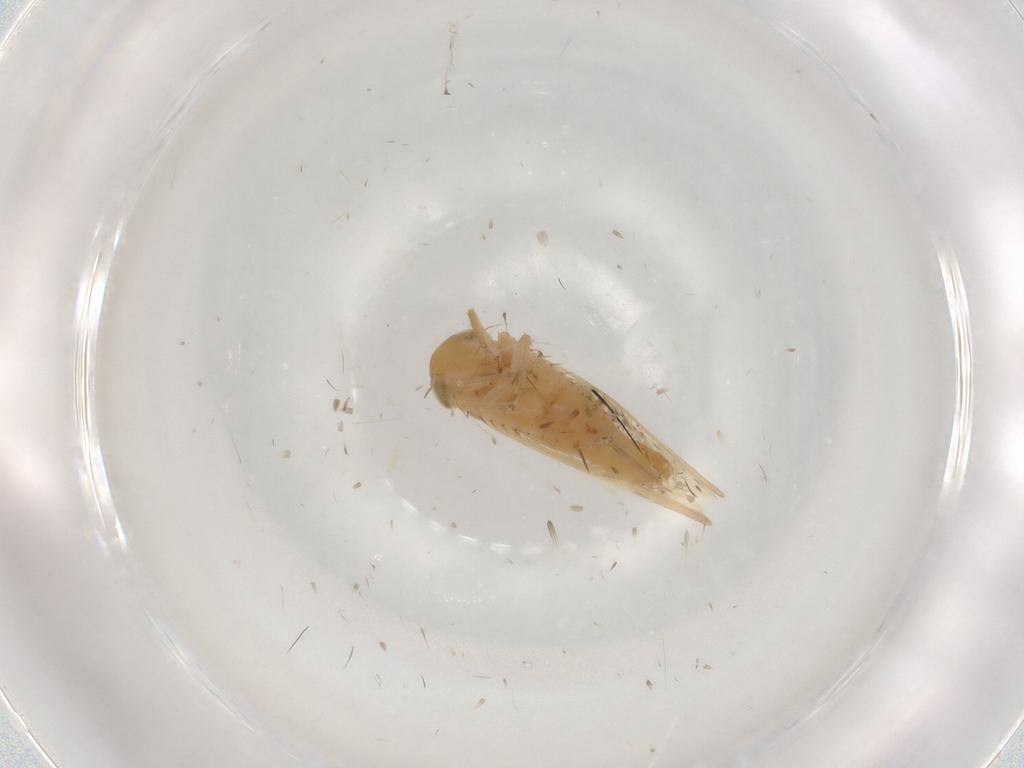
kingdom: Animalia
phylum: Arthropoda
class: Insecta
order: Hemiptera
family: Cicadellidae
